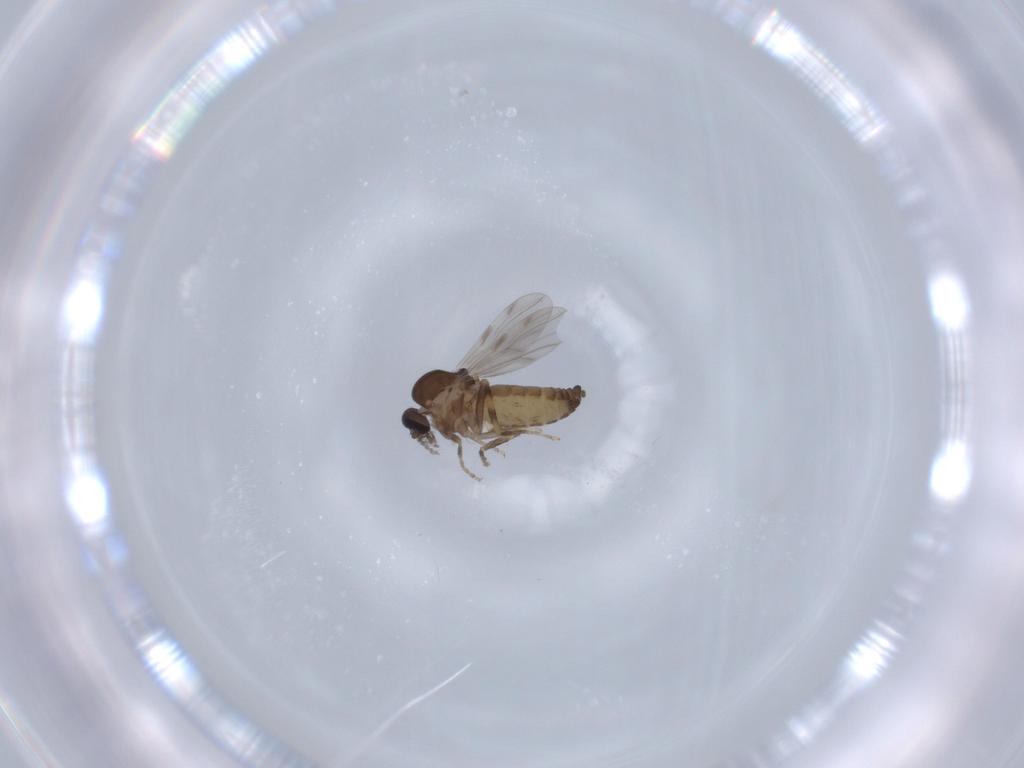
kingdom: Animalia
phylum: Arthropoda
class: Insecta
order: Diptera
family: Ceratopogonidae
